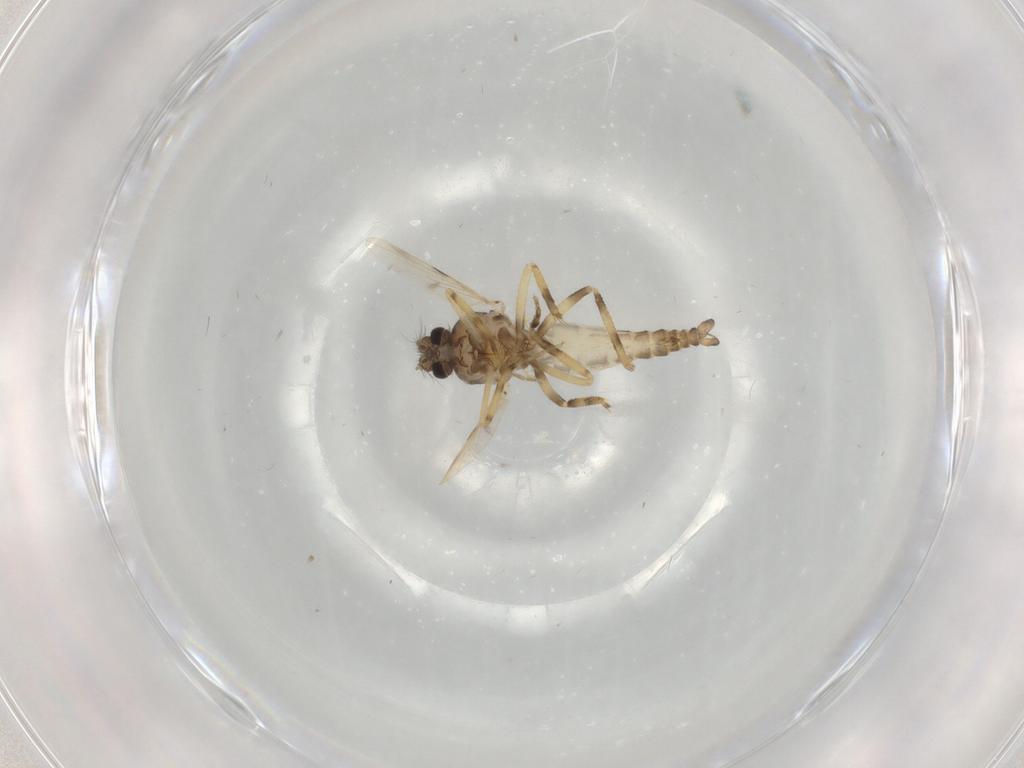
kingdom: Animalia
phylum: Arthropoda
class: Insecta
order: Diptera
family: Ceratopogonidae
